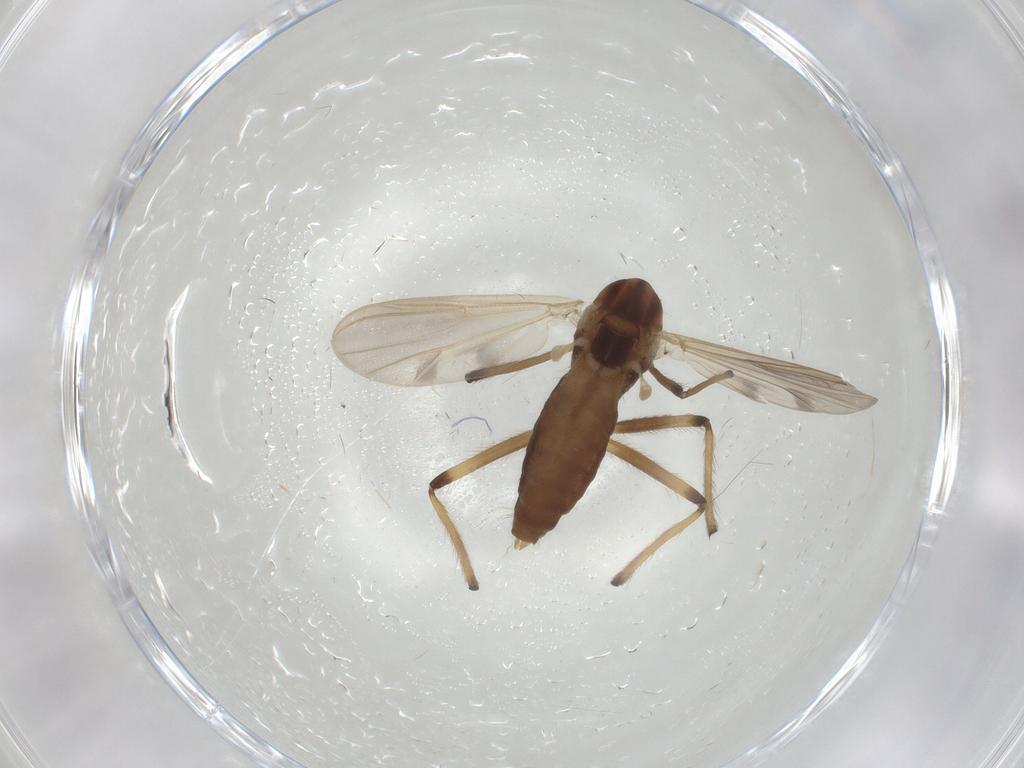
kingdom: Animalia
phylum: Arthropoda
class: Insecta
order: Diptera
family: Chironomidae
